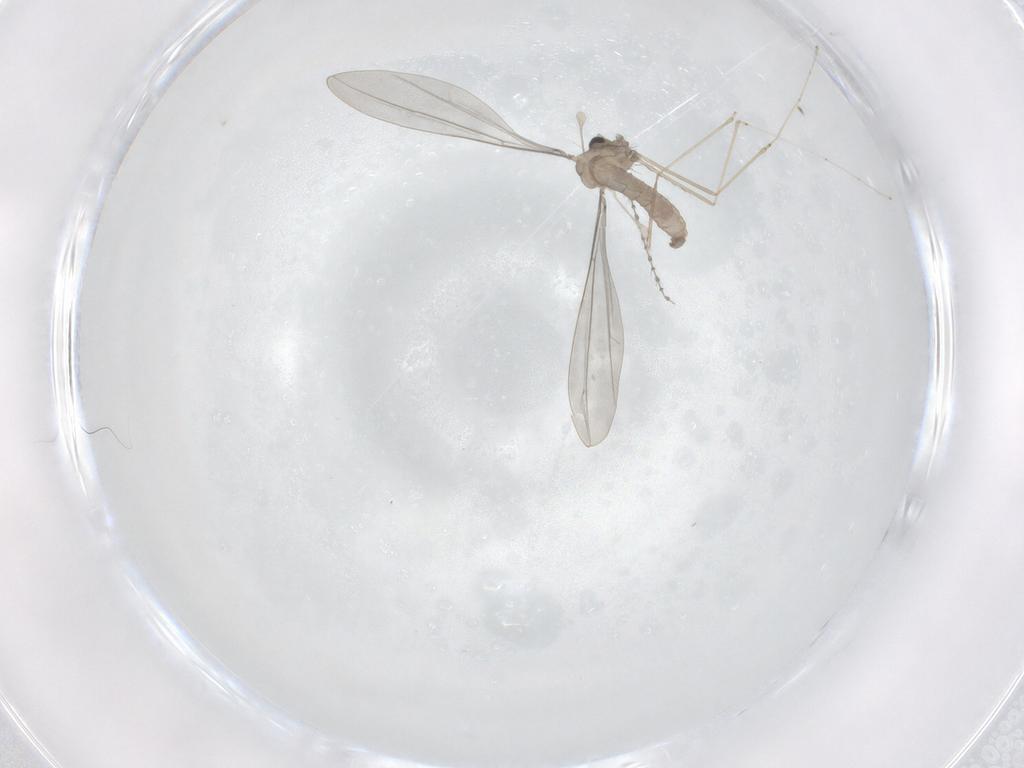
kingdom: Animalia
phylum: Arthropoda
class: Insecta
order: Diptera
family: Cecidomyiidae
